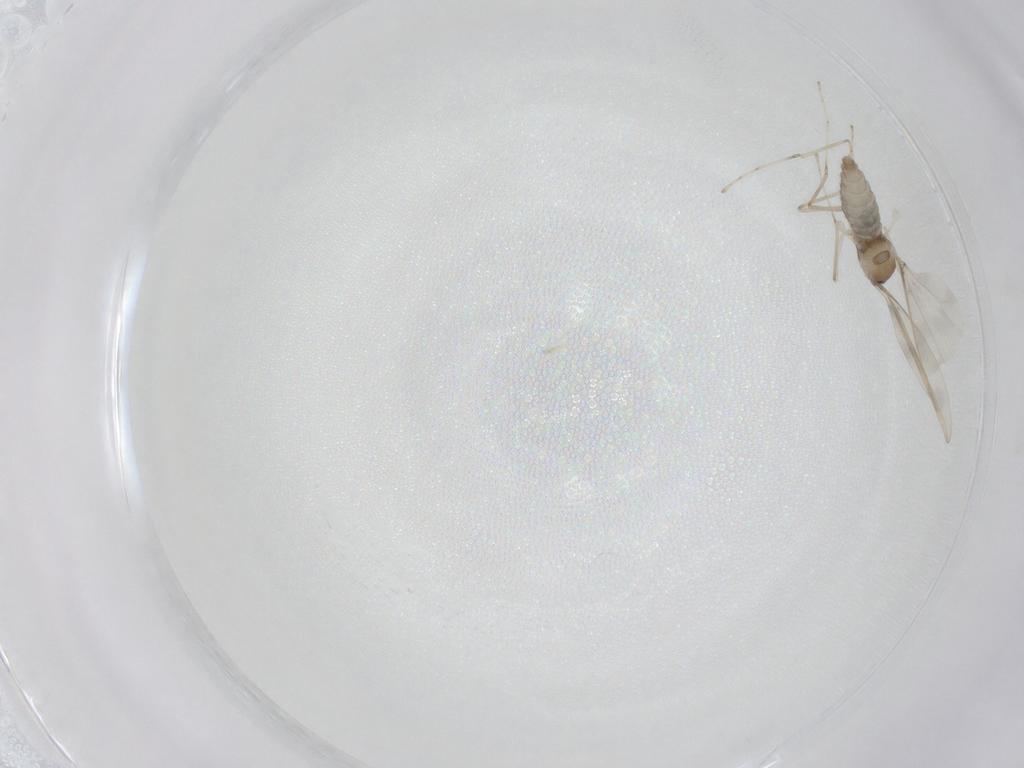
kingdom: Animalia
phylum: Arthropoda
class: Insecta
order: Diptera
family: Cecidomyiidae
